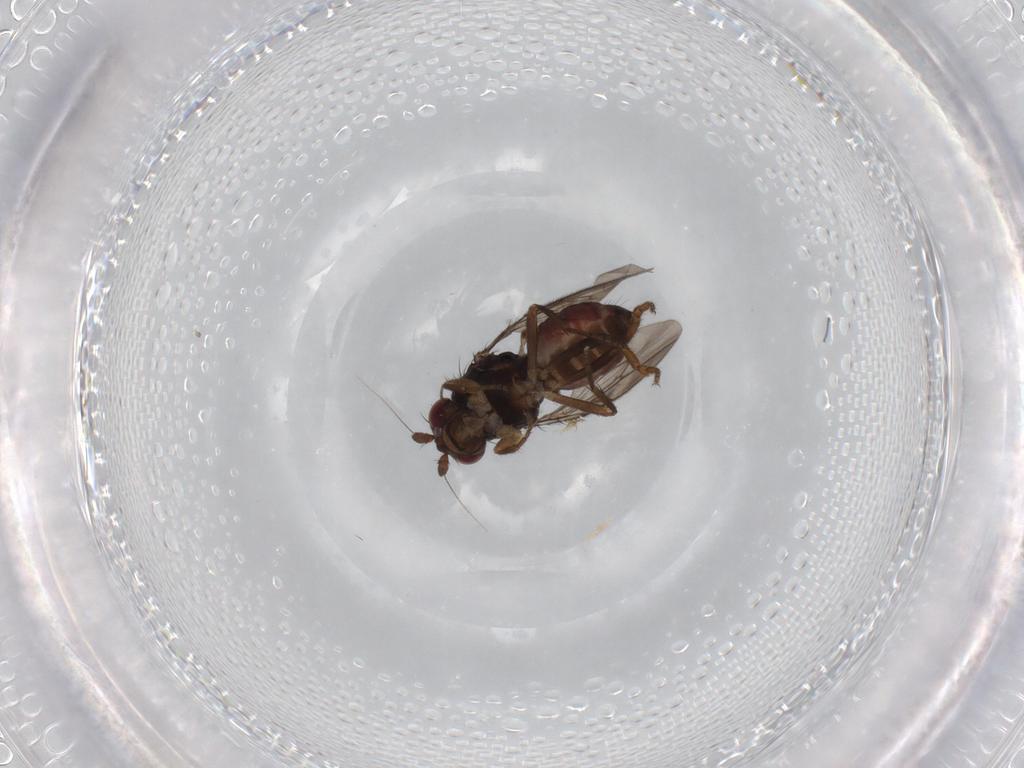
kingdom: Animalia
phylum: Arthropoda
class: Insecta
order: Diptera
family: Sphaeroceridae
